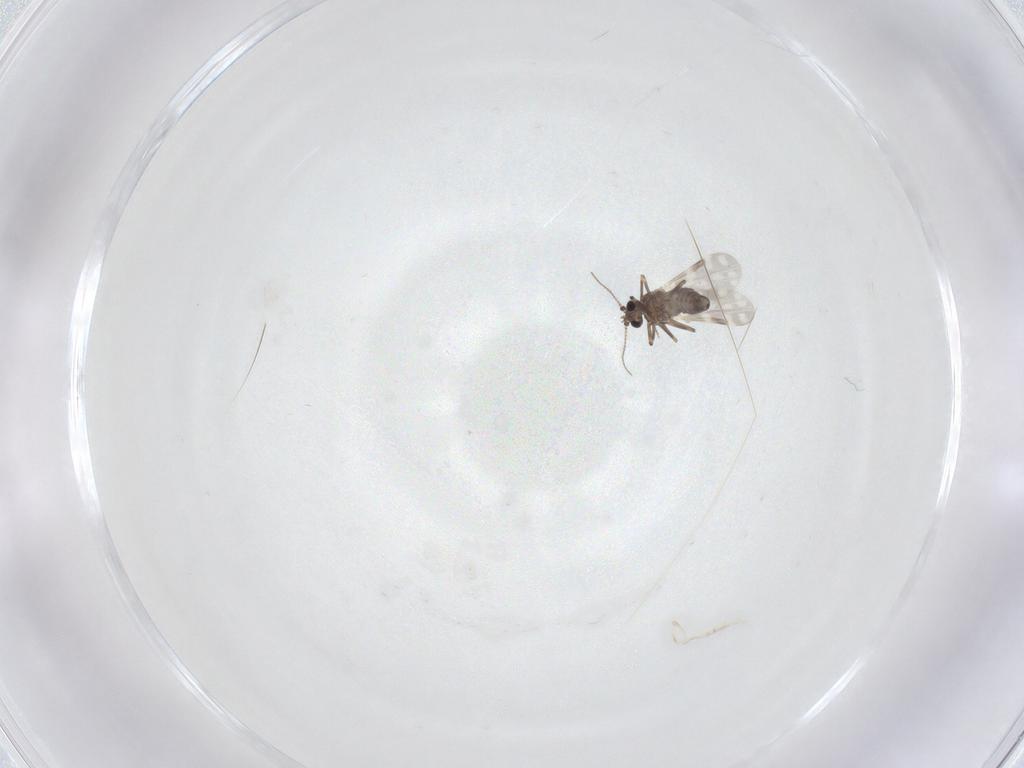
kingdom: Animalia
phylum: Arthropoda
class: Insecta
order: Diptera
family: Ceratopogonidae
